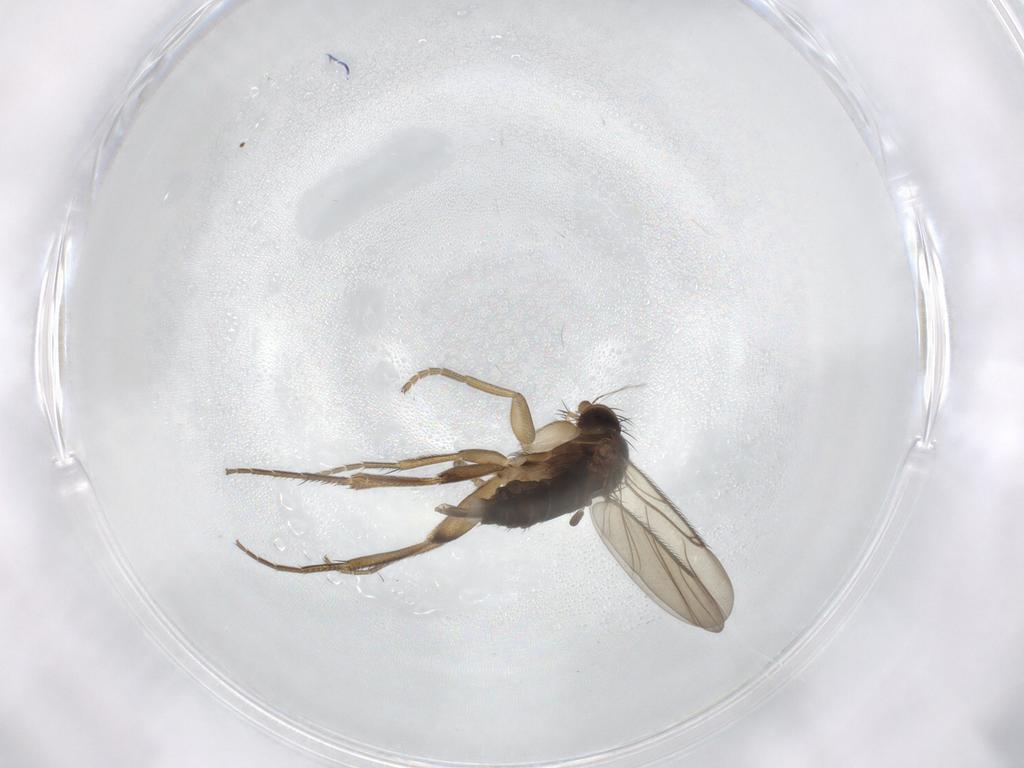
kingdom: Animalia
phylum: Arthropoda
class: Insecta
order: Diptera
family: Phoridae
